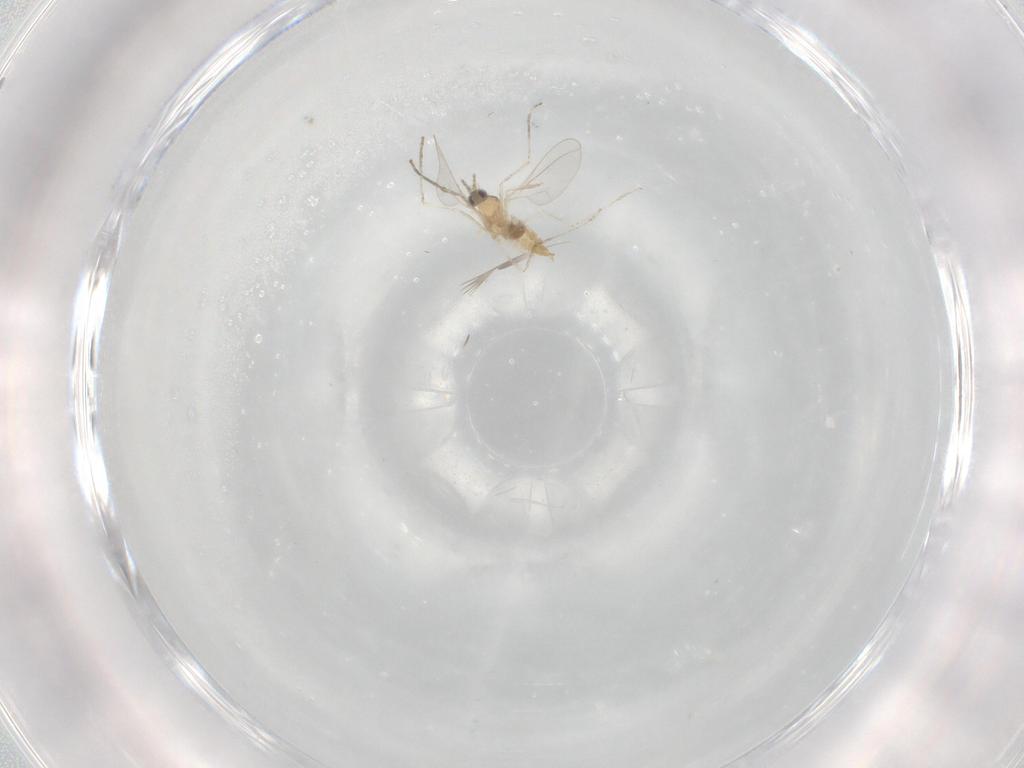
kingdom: Animalia
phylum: Arthropoda
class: Insecta
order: Diptera
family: Cecidomyiidae
